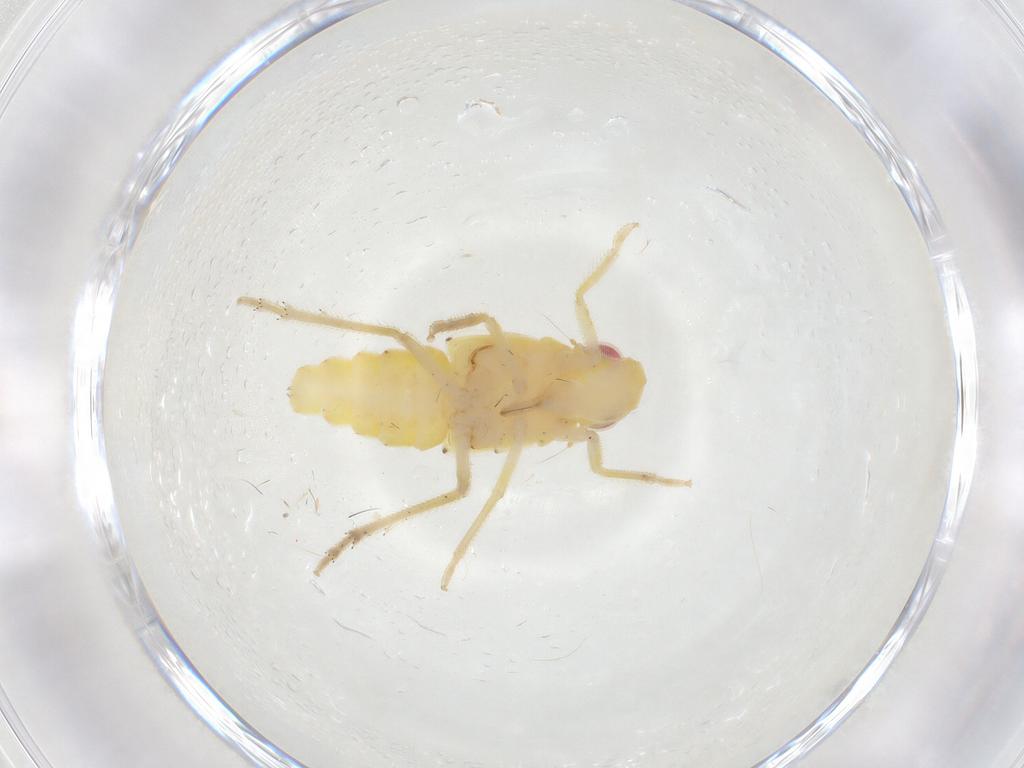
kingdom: Animalia
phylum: Arthropoda
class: Insecta
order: Hemiptera
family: Tropiduchidae
